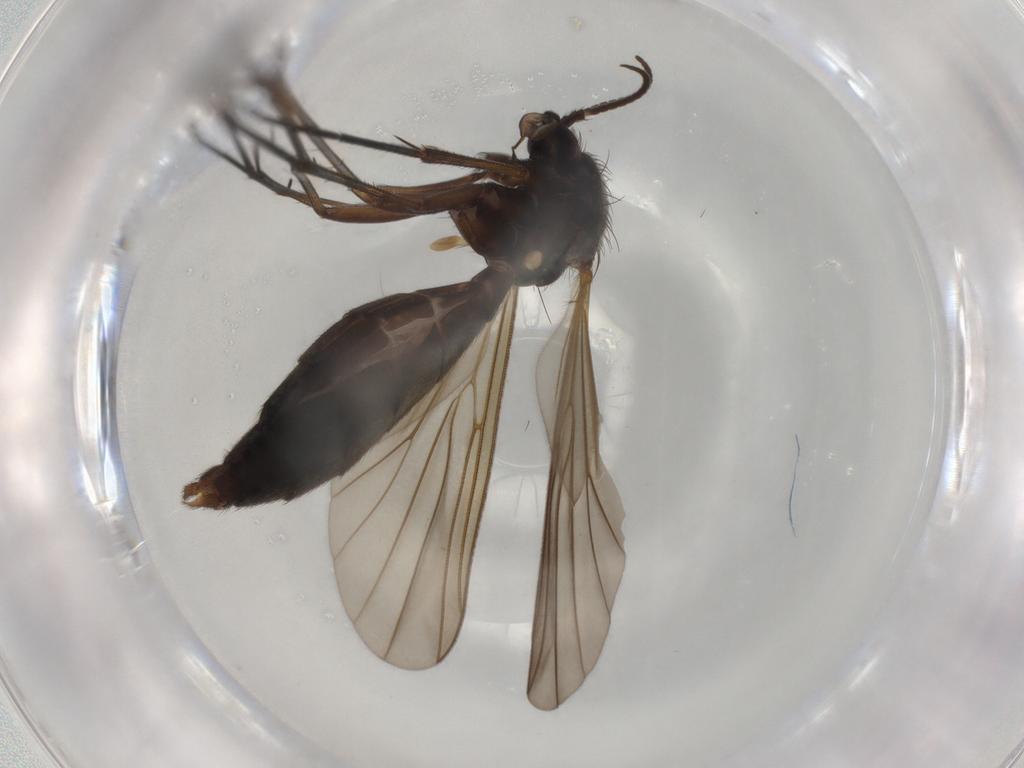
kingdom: Animalia
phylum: Arthropoda
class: Insecta
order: Diptera
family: Mycetophilidae
